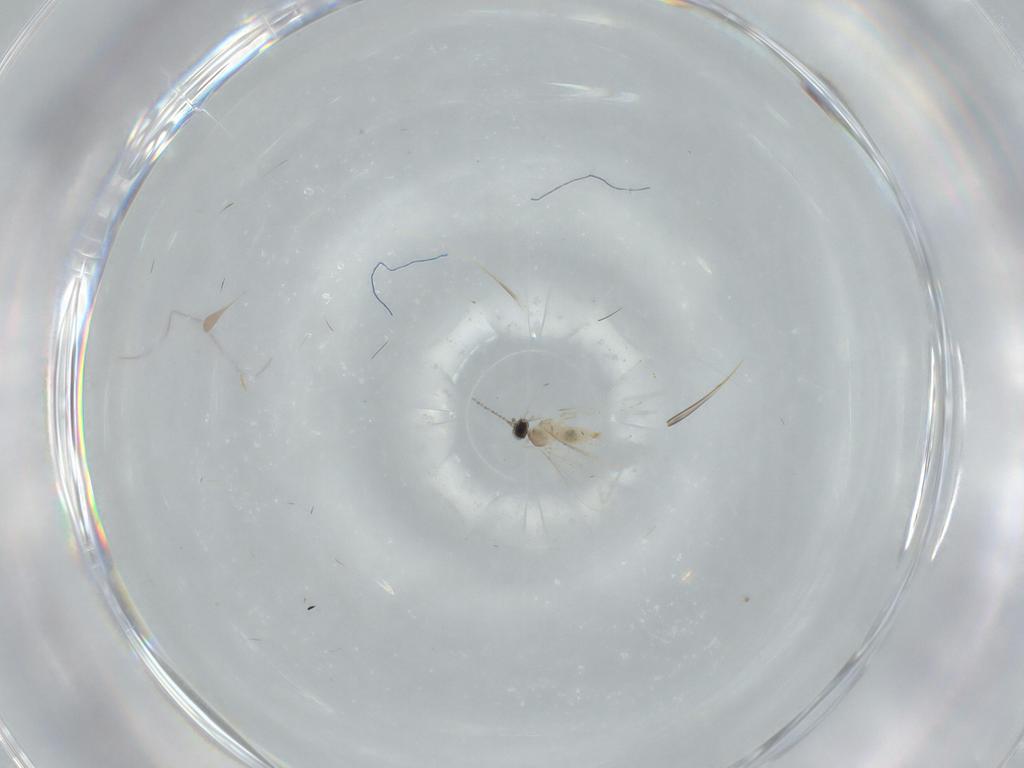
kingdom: Animalia
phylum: Arthropoda
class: Insecta
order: Diptera
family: Cecidomyiidae
